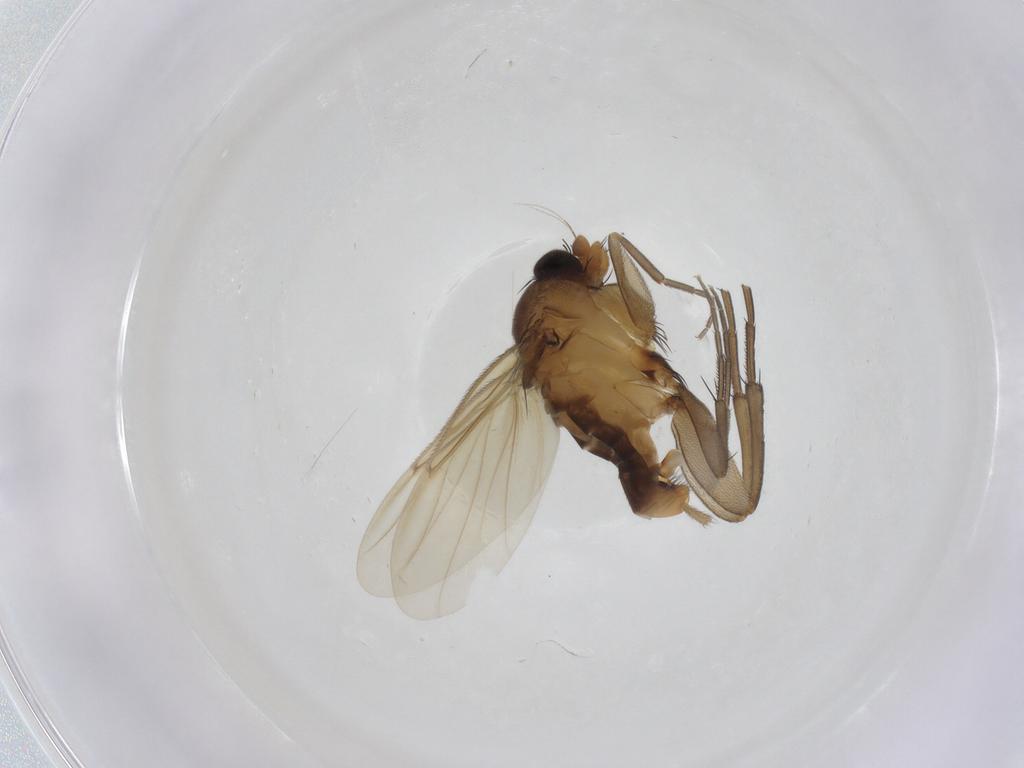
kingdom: Animalia
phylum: Arthropoda
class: Insecta
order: Diptera
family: Phoridae
